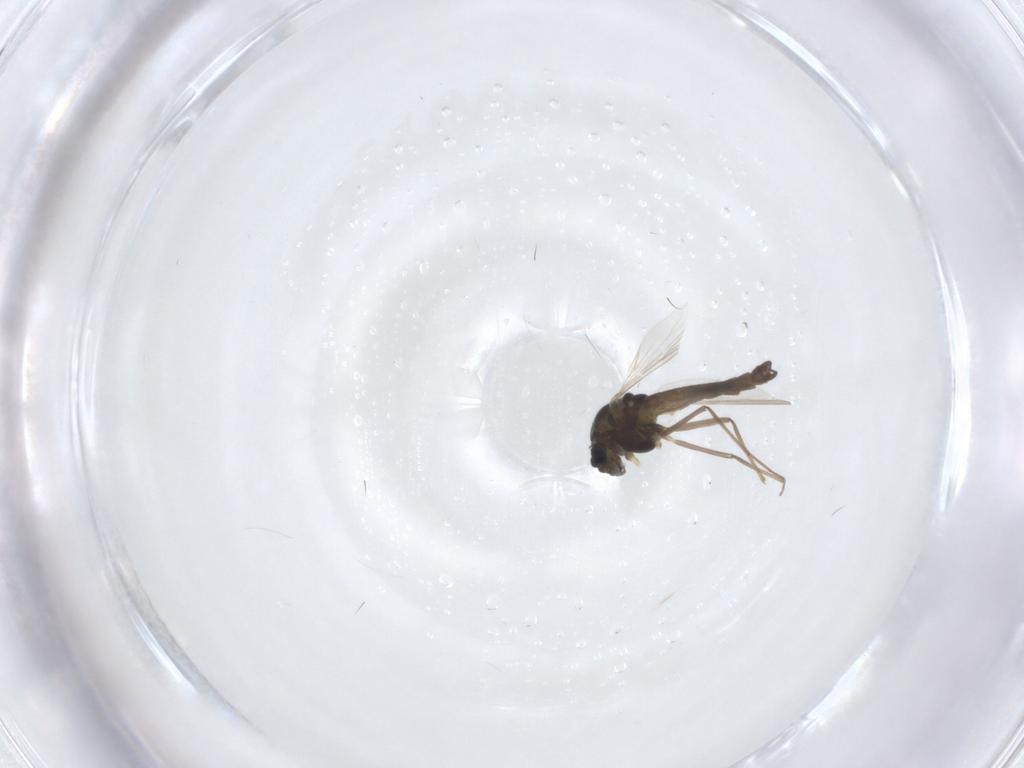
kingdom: Animalia
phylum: Arthropoda
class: Insecta
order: Diptera
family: Chironomidae
